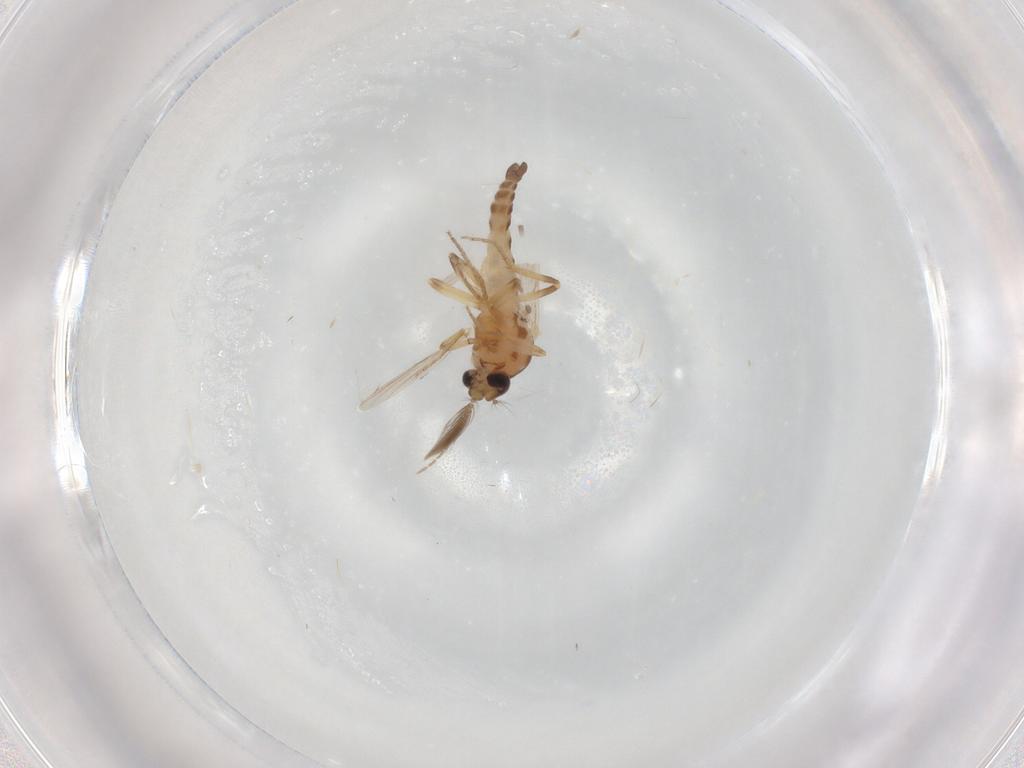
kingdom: Animalia
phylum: Arthropoda
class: Insecta
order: Diptera
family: Ceratopogonidae
